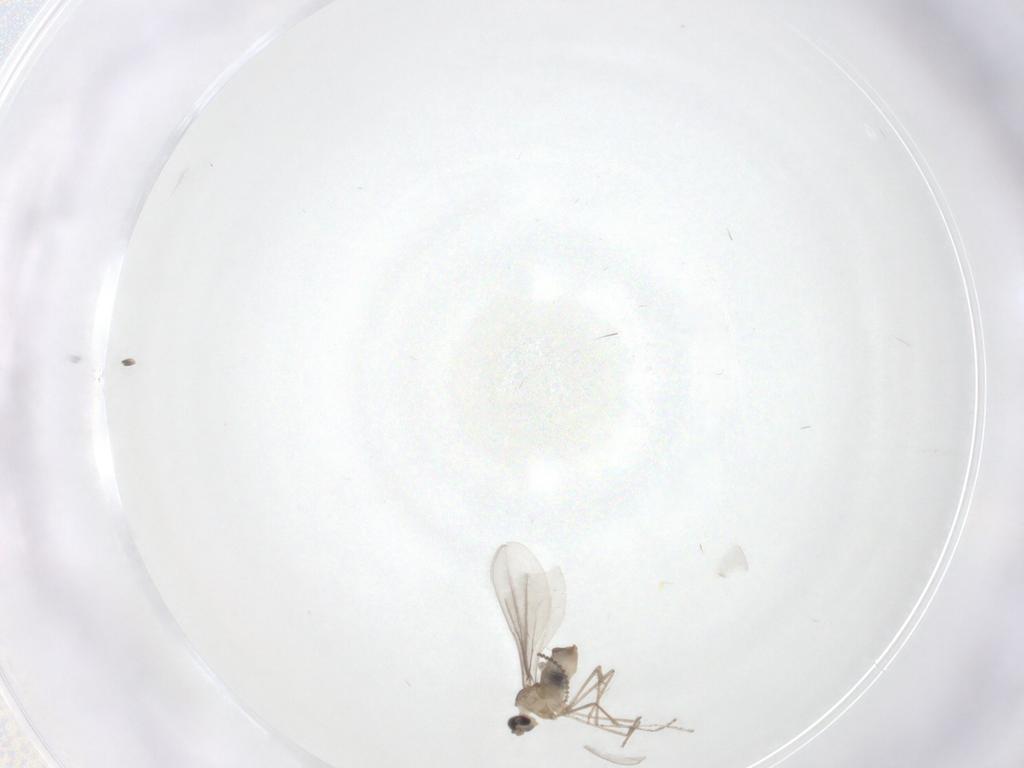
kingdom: Animalia
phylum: Arthropoda
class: Insecta
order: Diptera
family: Cecidomyiidae
